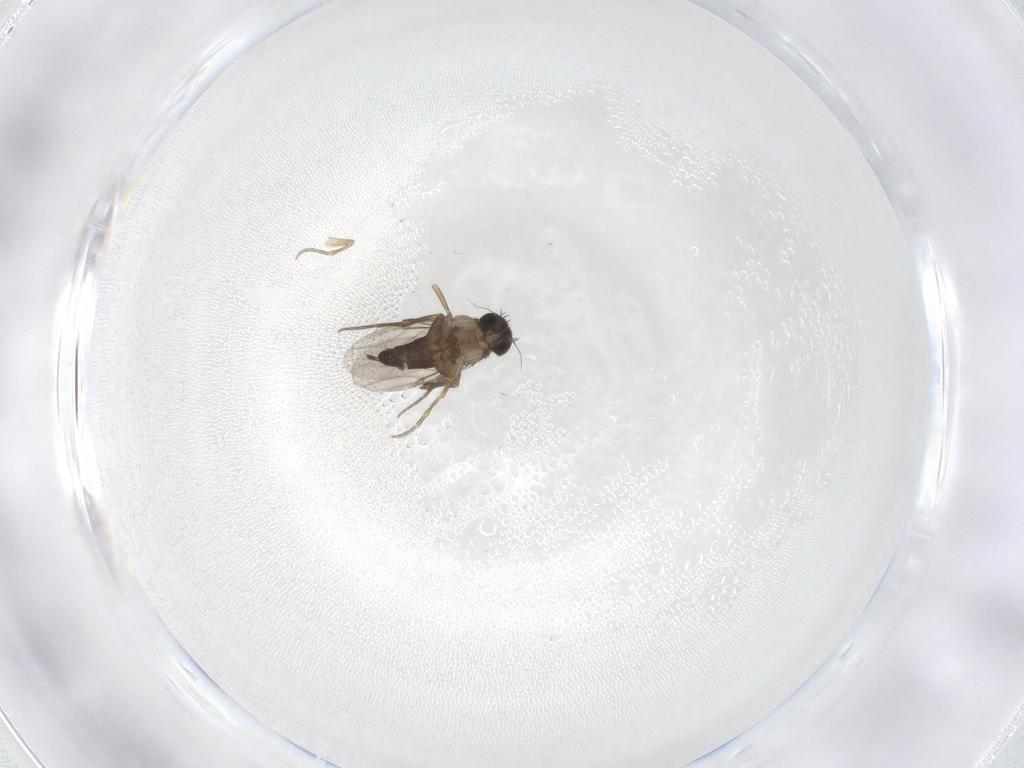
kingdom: Animalia
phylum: Arthropoda
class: Insecta
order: Diptera
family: Phoridae
